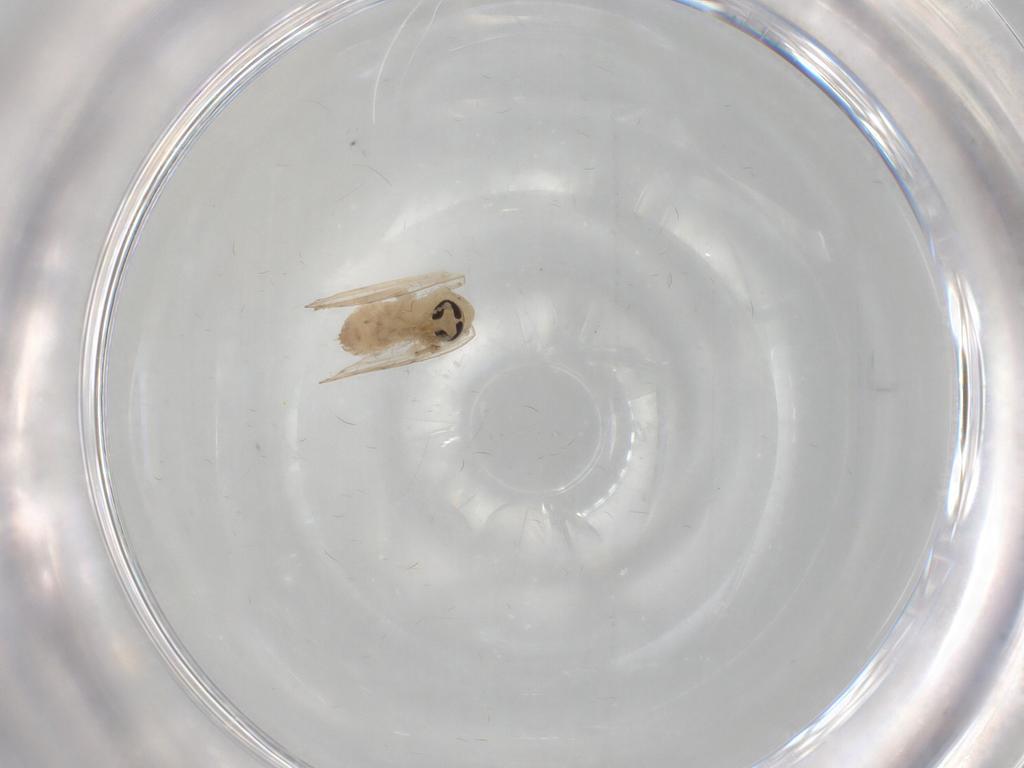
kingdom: Animalia
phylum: Arthropoda
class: Insecta
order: Diptera
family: Psychodidae
